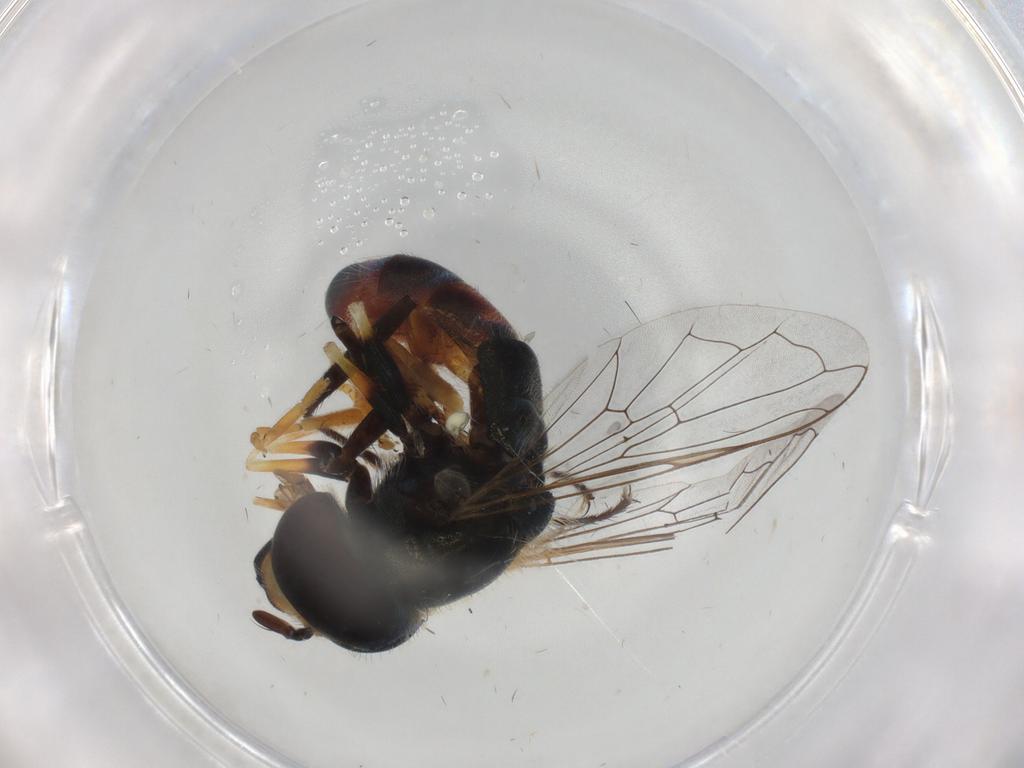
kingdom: Animalia
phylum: Arthropoda
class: Insecta
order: Diptera
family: Syrphidae
